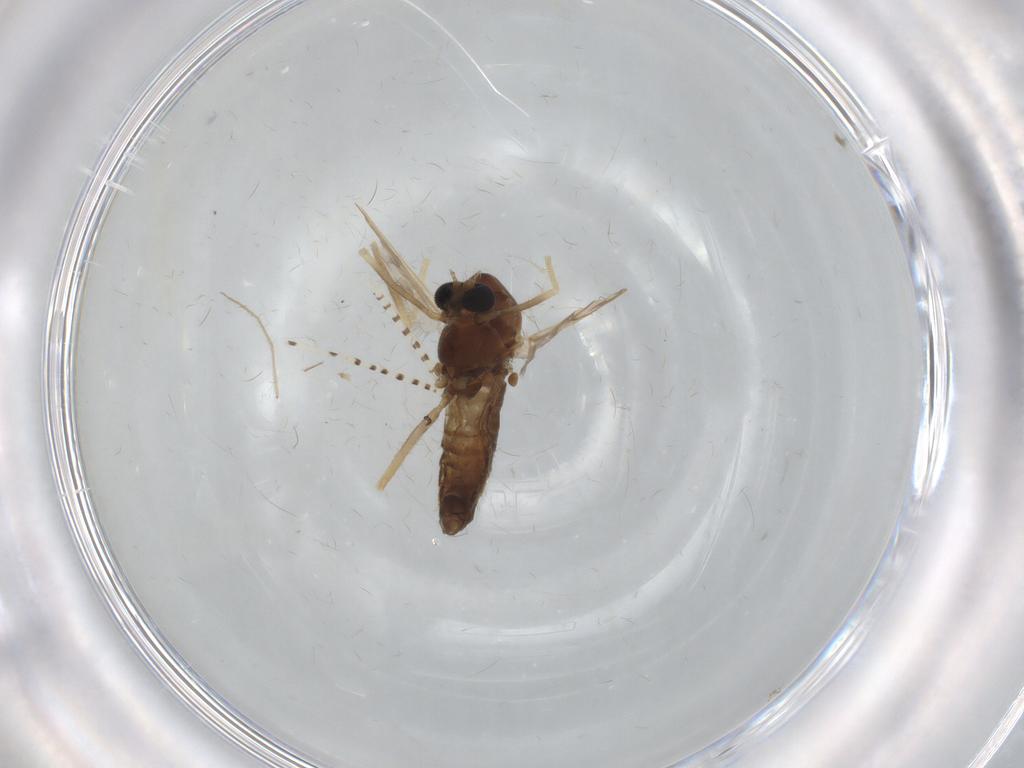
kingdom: Animalia
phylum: Arthropoda
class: Insecta
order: Diptera
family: Chironomidae
